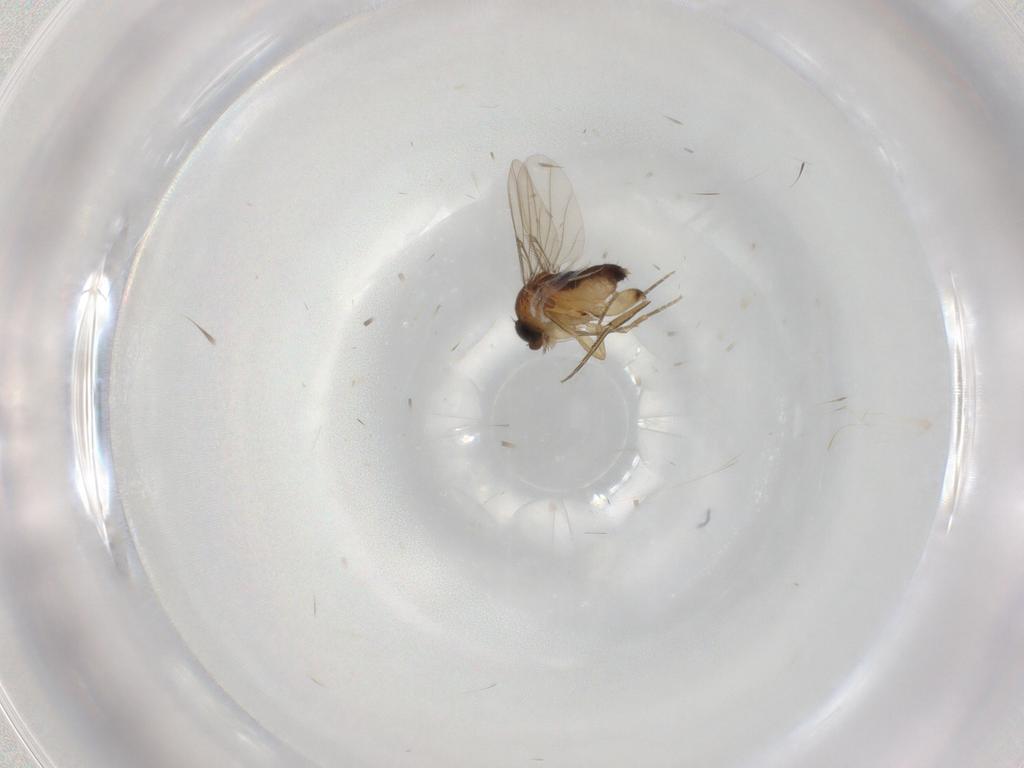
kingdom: Animalia
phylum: Arthropoda
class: Insecta
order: Diptera
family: Phoridae
